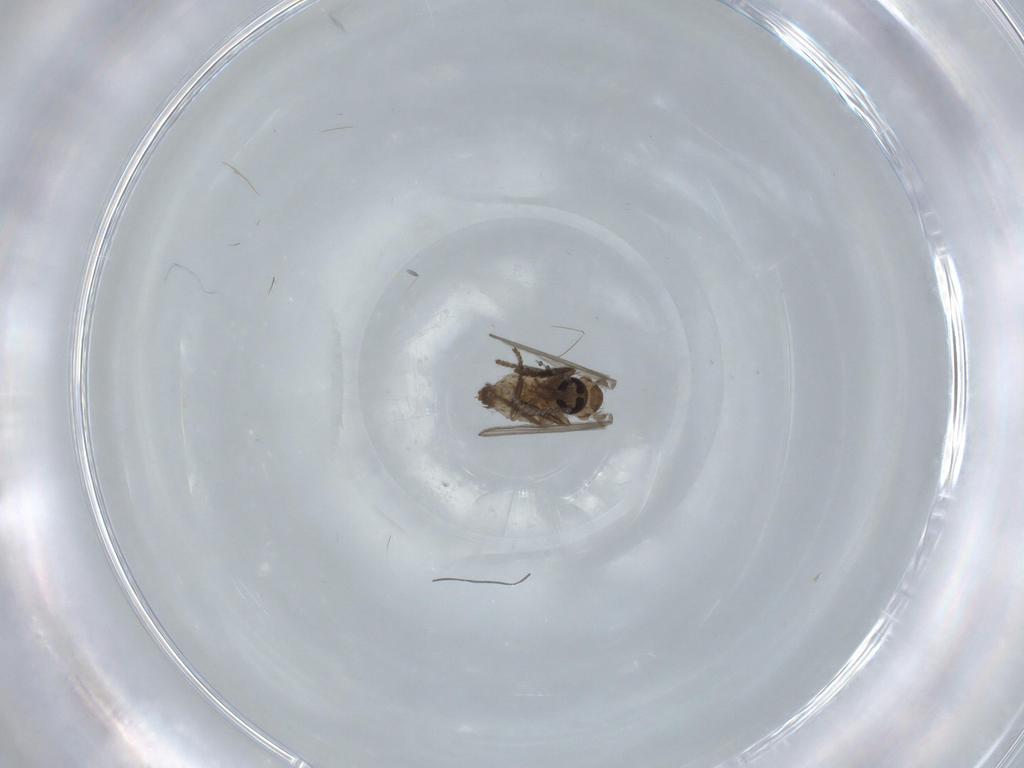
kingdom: Animalia
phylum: Arthropoda
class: Insecta
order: Diptera
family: Psychodidae
